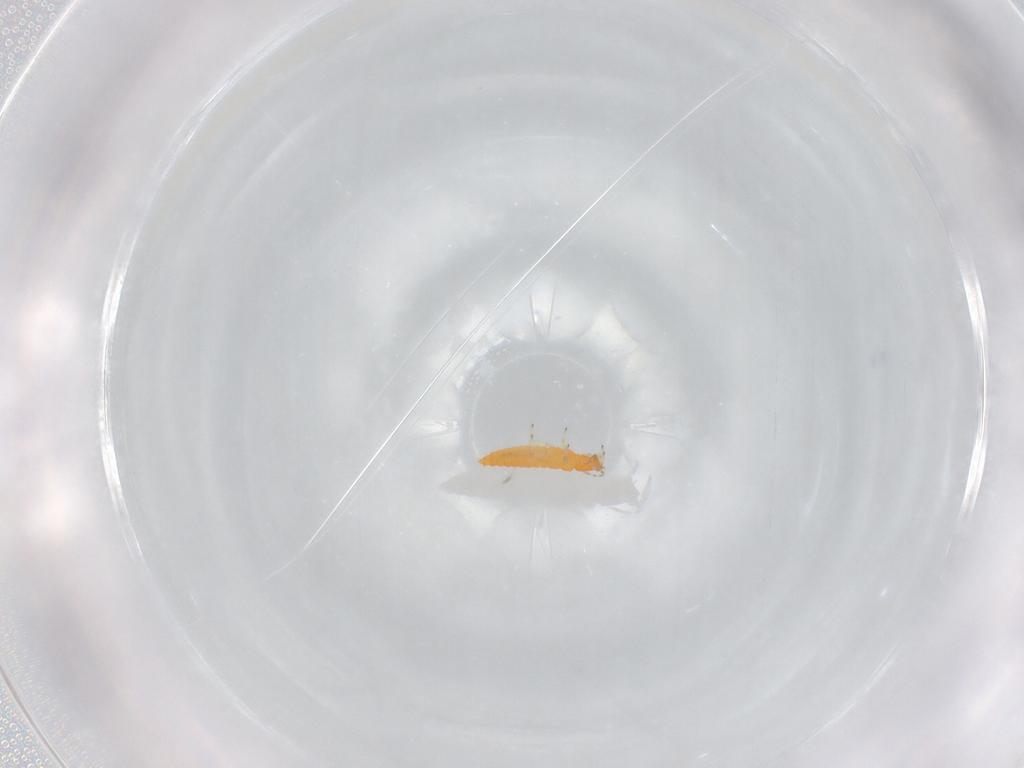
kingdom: Animalia
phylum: Arthropoda
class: Insecta
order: Thysanoptera
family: Aeolothripidae
